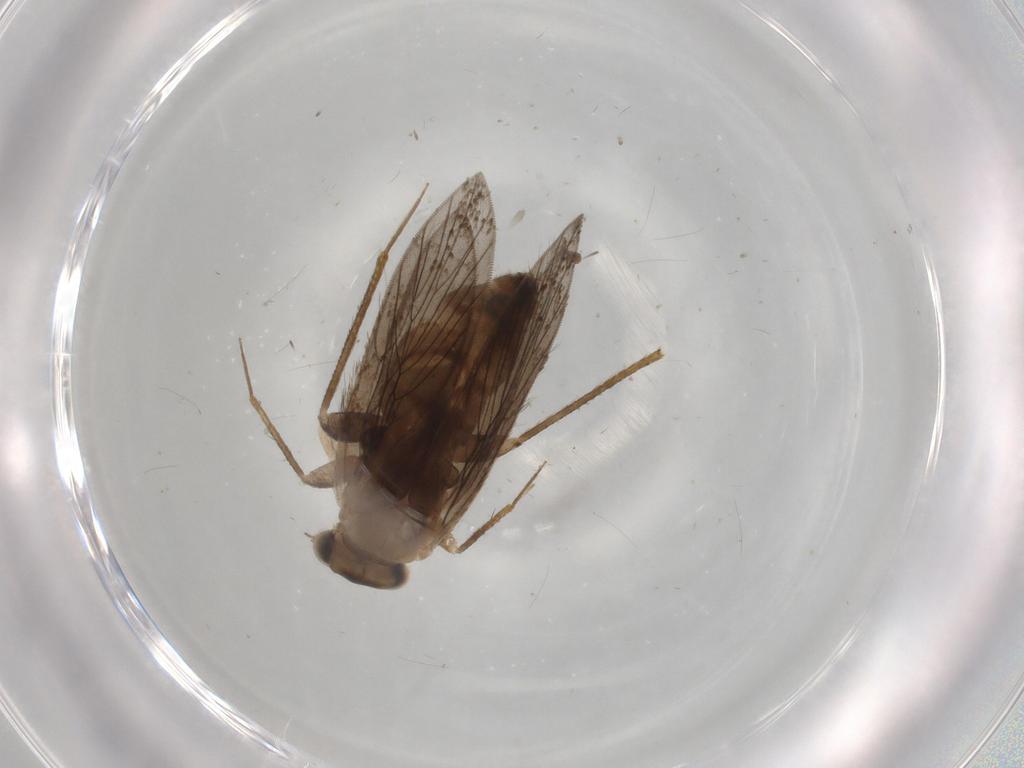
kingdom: Animalia
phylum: Arthropoda
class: Insecta
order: Psocodea
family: Lepidopsocidae
